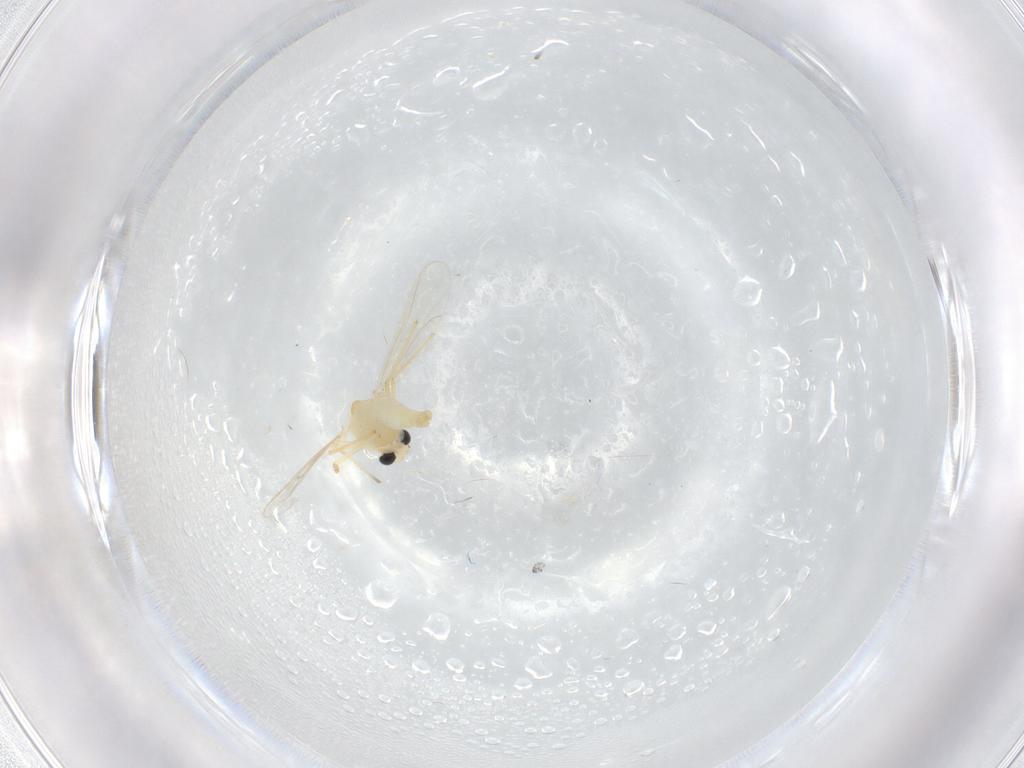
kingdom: Animalia
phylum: Arthropoda
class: Insecta
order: Diptera
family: Chironomidae
